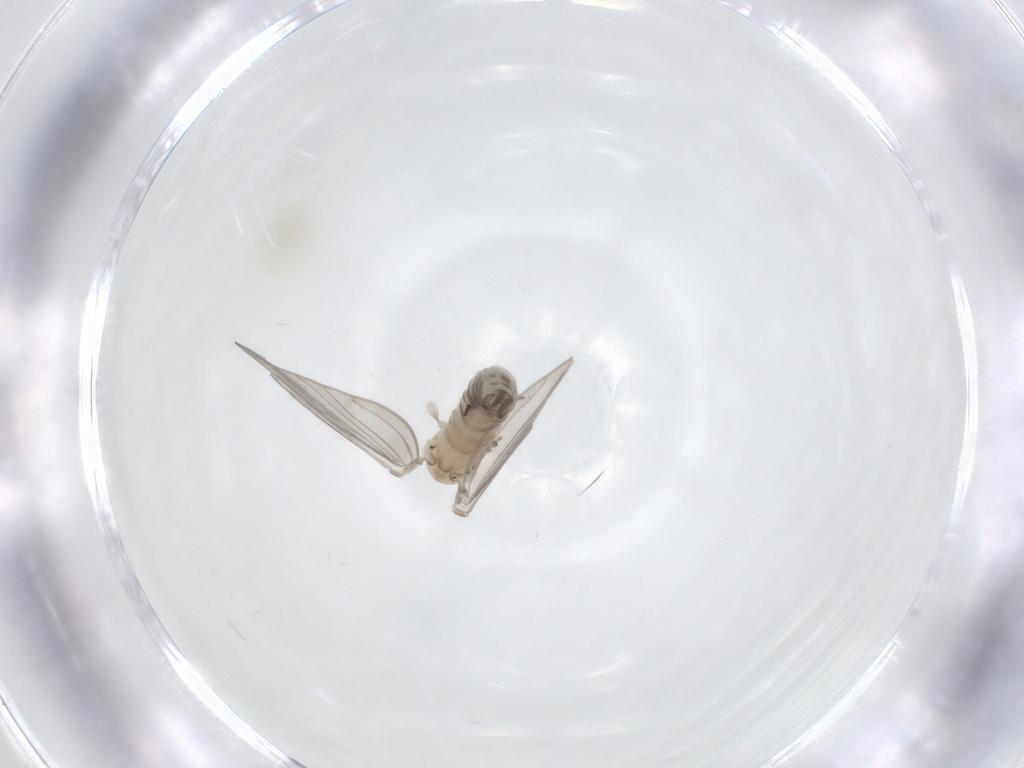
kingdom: Animalia
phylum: Arthropoda
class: Insecta
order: Diptera
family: Psychodidae
